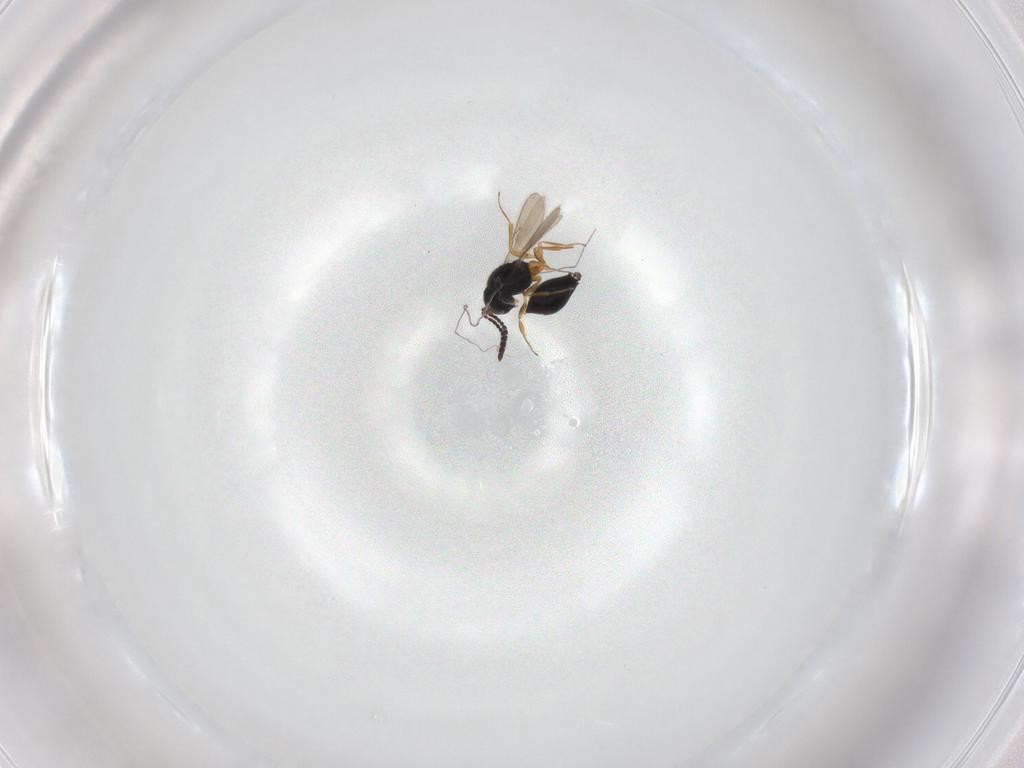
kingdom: Animalia
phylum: Arthropoda
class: Insecta
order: Hymenoptera
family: Scelionidae
